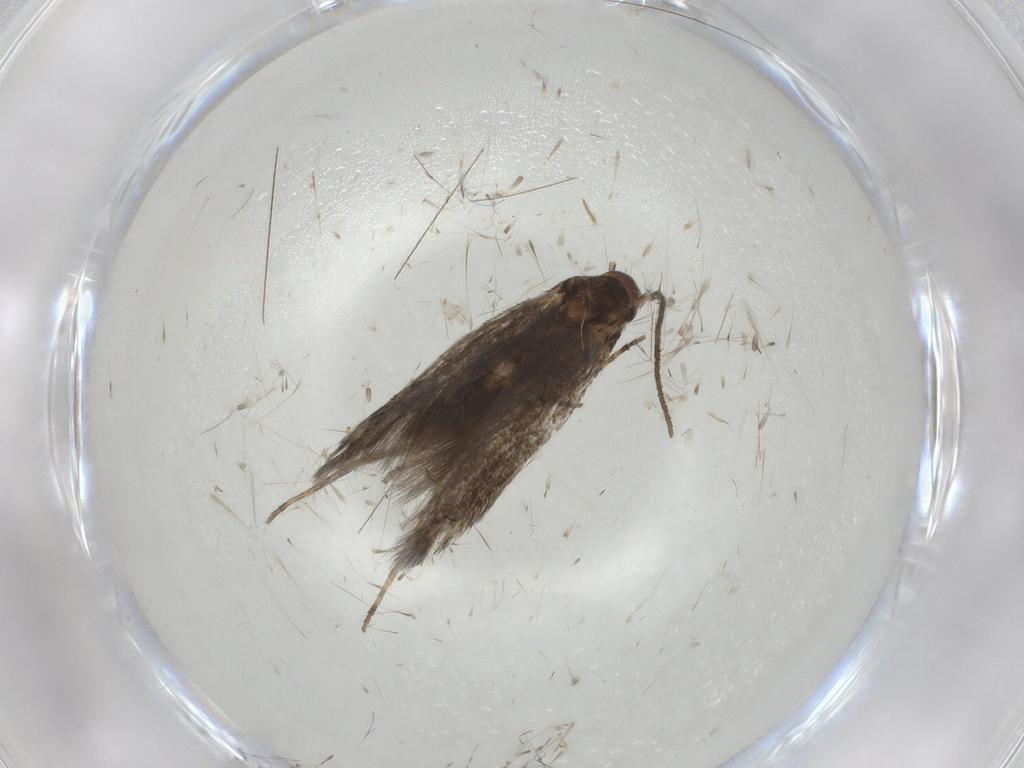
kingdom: Animalia
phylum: Arthropoda
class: Insecta
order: Lepidoptera
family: Elachistidae
